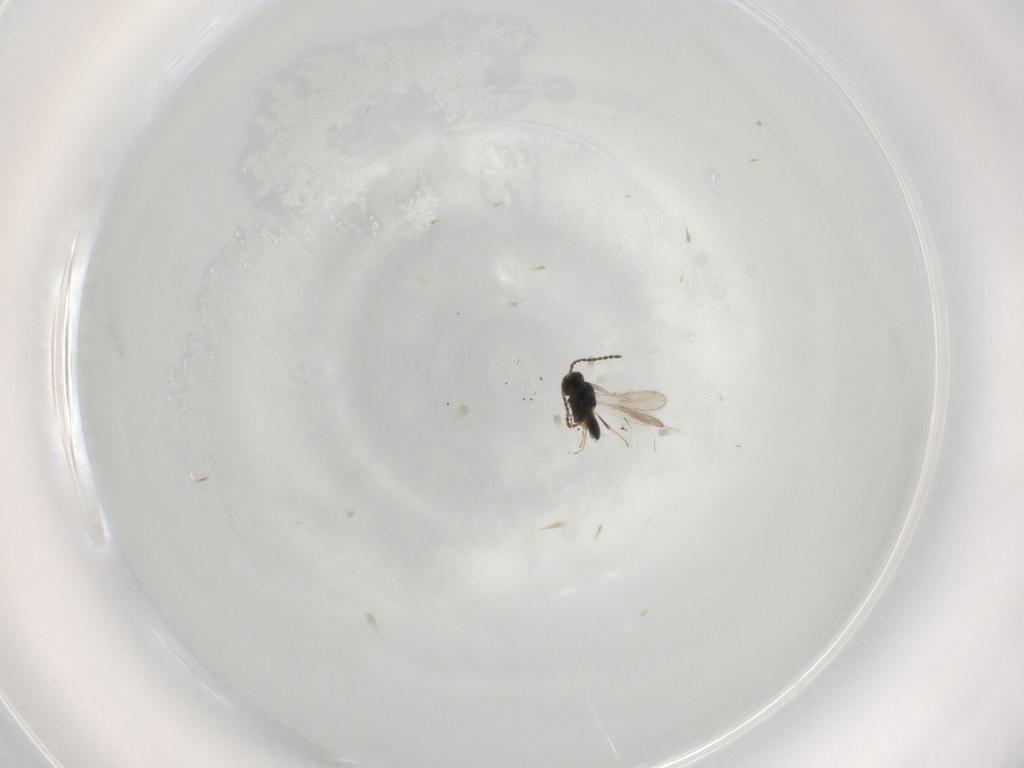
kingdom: Animalia
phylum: Arthropoda
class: Insecta
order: Hymenoptera
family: Scelionidae
